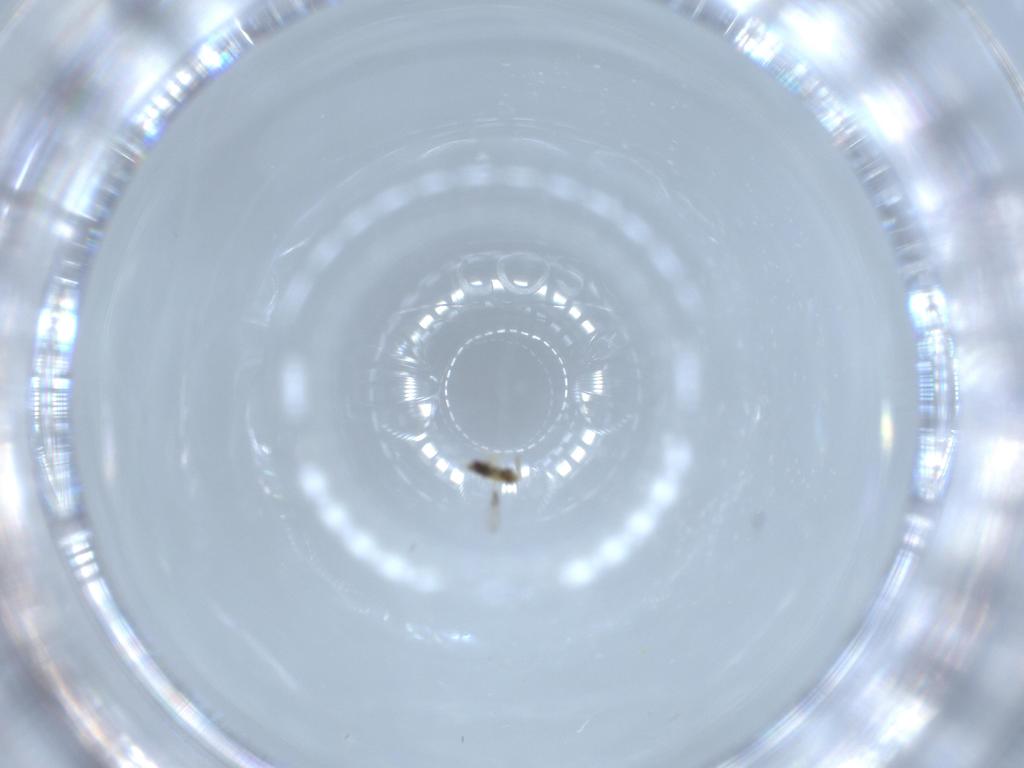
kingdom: Animalia
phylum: Arthropoda
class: Insecta
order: Hymenoptera
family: Aphelinidae
